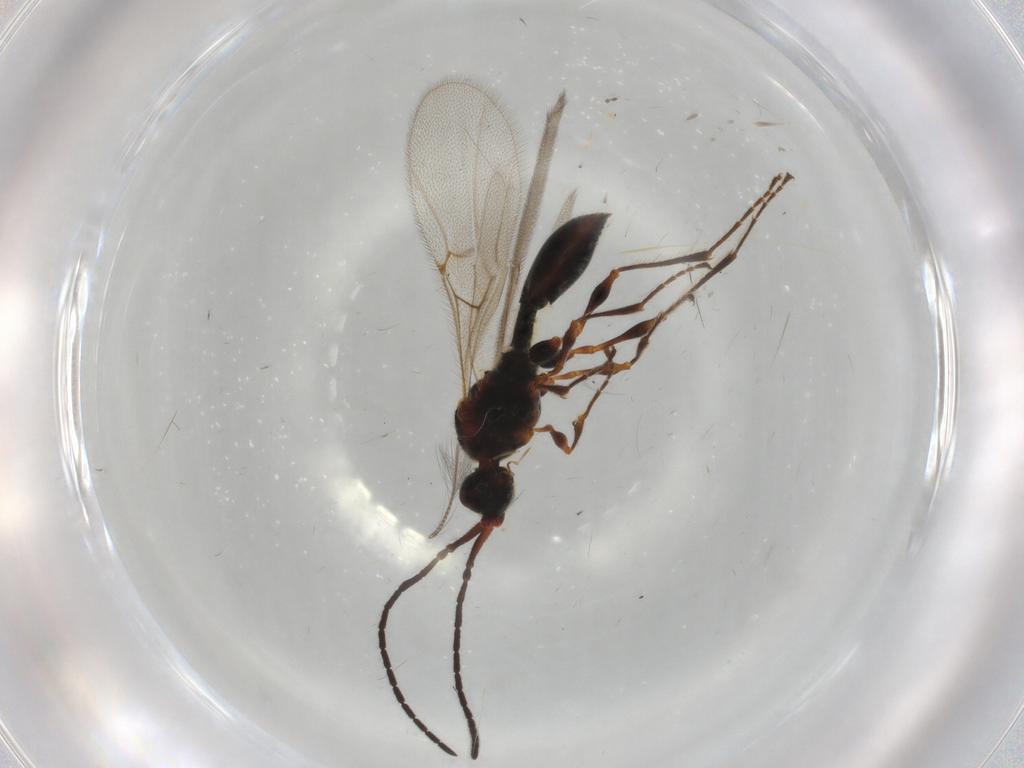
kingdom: Animalia
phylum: Arthropoda
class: Insecta
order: Hymenoptera
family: Diapriidae
